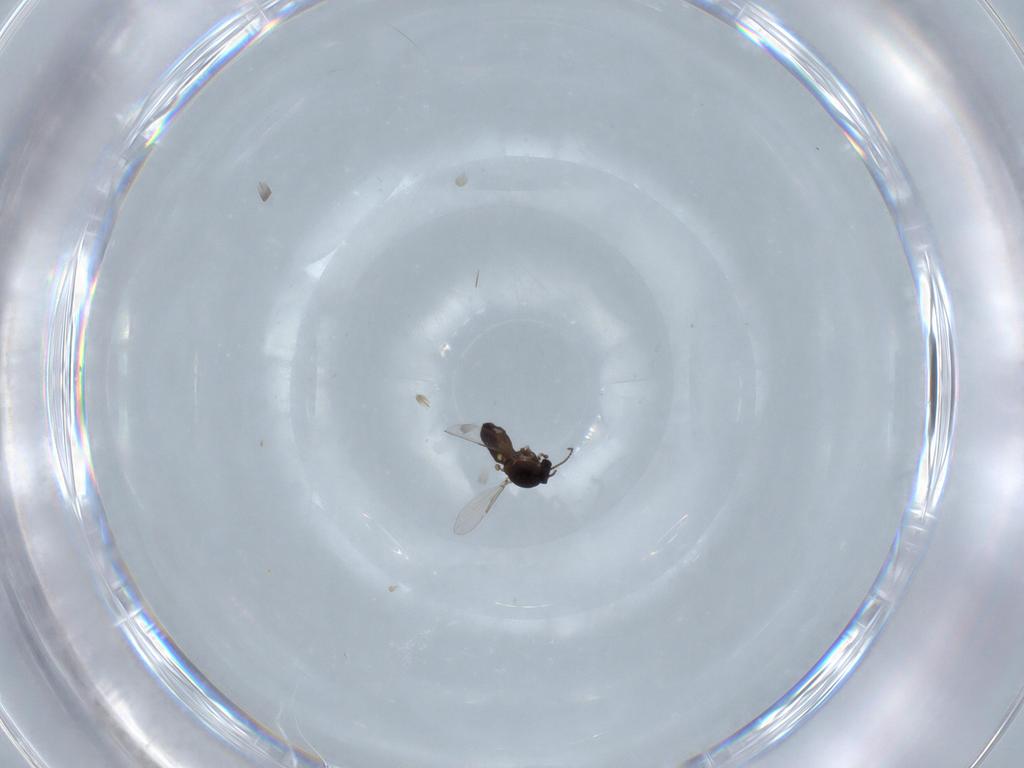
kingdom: Animalia
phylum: Arthropoda
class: Insecta
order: Diptera
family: Ceratopogonidae
